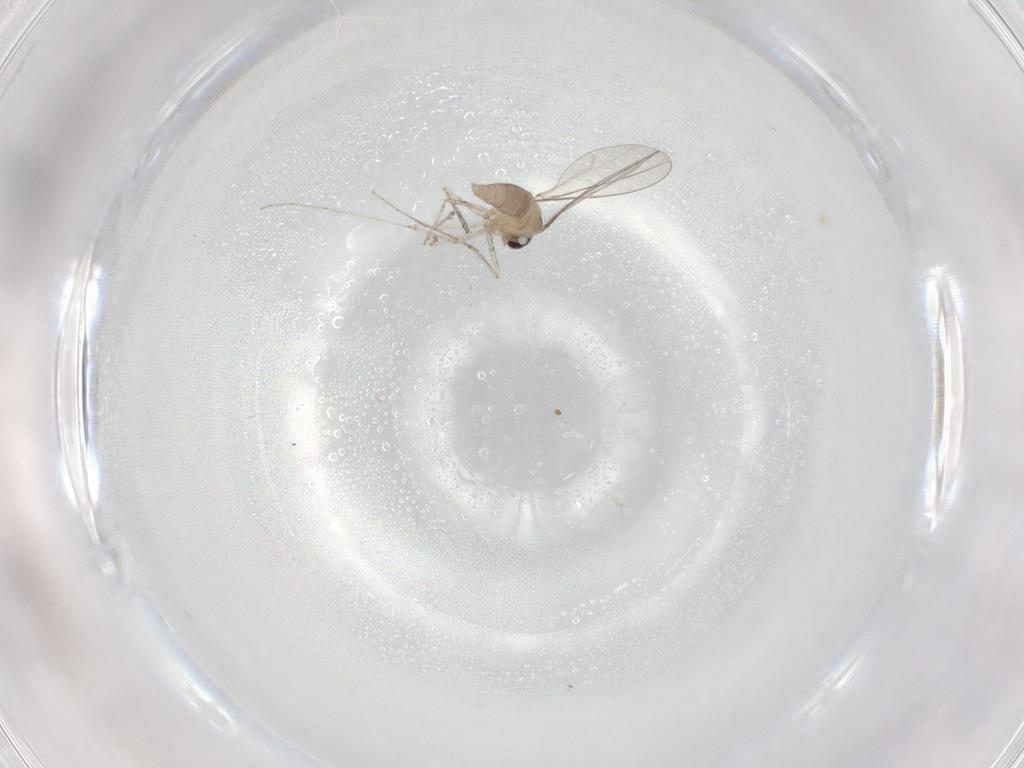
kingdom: Animalia
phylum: Arthropoda
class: Insecta
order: Diptera
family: Cecidomyiidae
